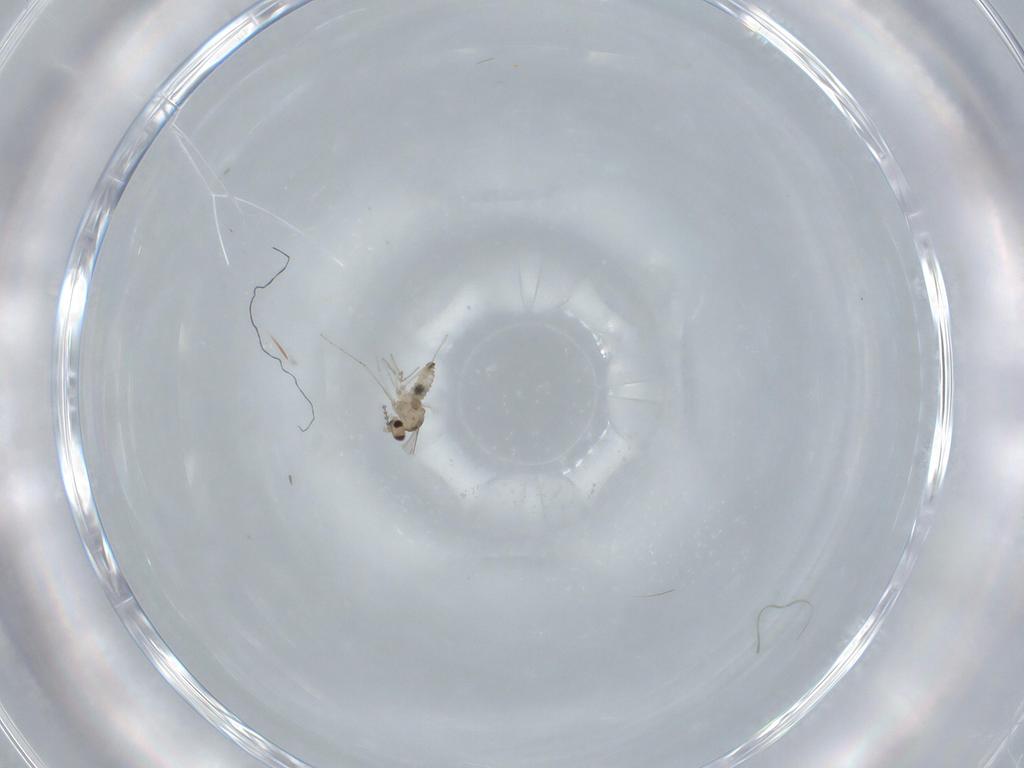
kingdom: Animalia
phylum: Arthropoda
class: Insecta
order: Diptera
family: Cecidomyiidae
